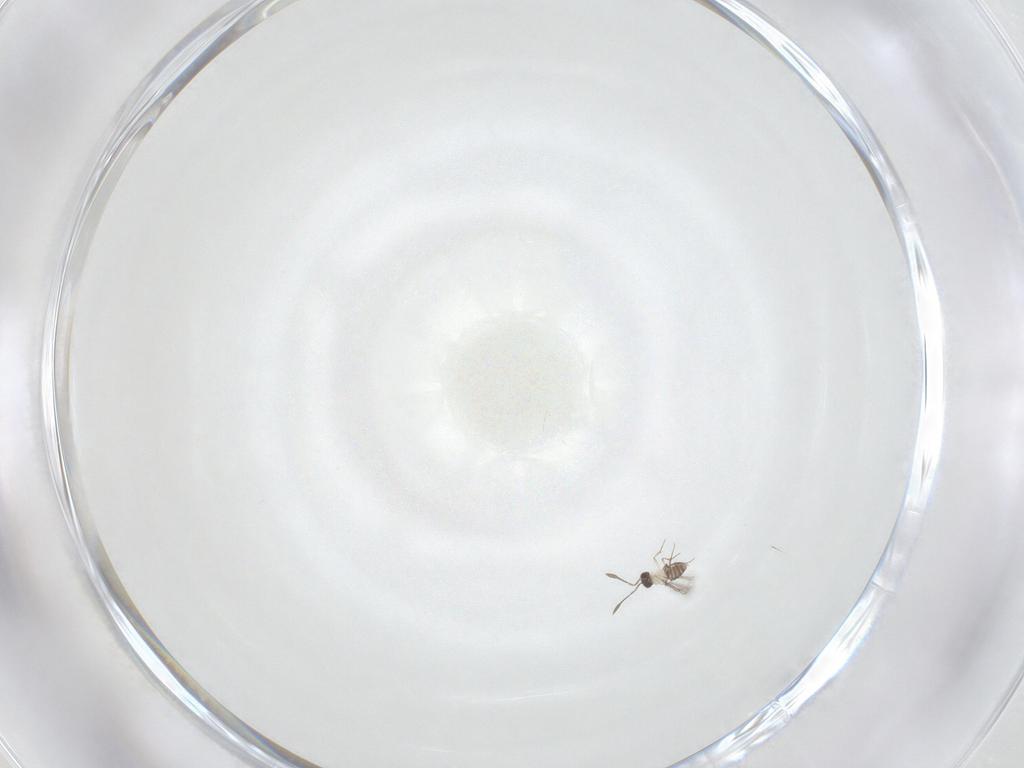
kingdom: Animalia
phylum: Arthropoda
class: Insecta
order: Hymenoptera
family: Mymaridae
